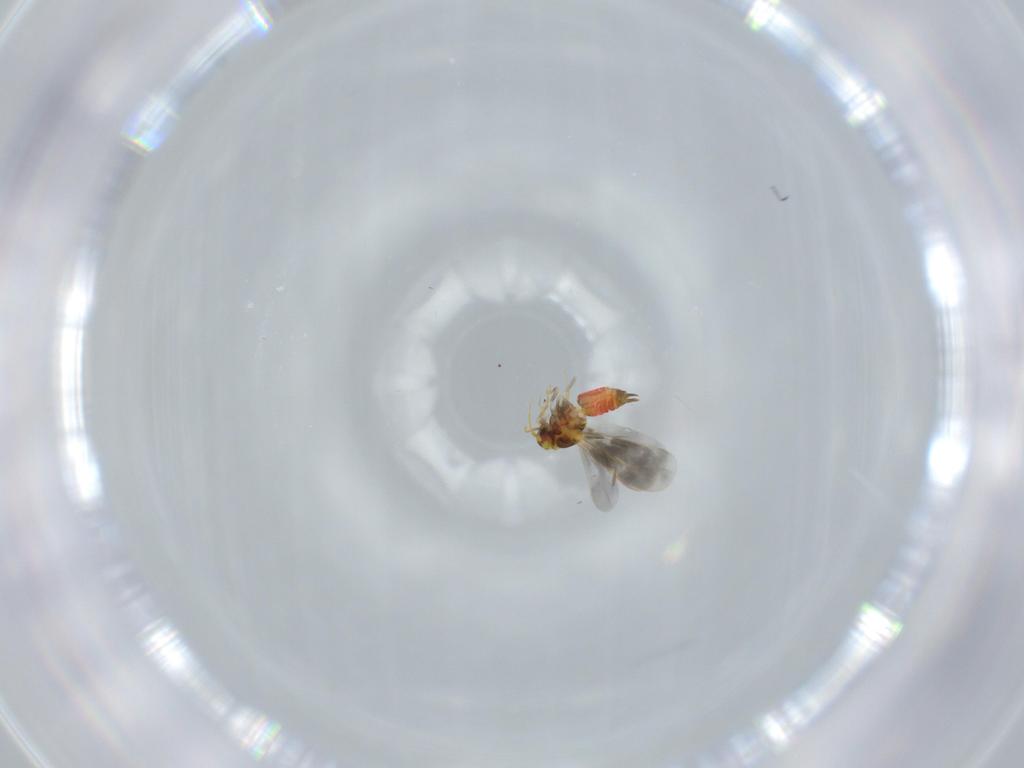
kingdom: Animalia
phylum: Arthropoda
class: Insecta
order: Hemiptera
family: Aleyrodidae
